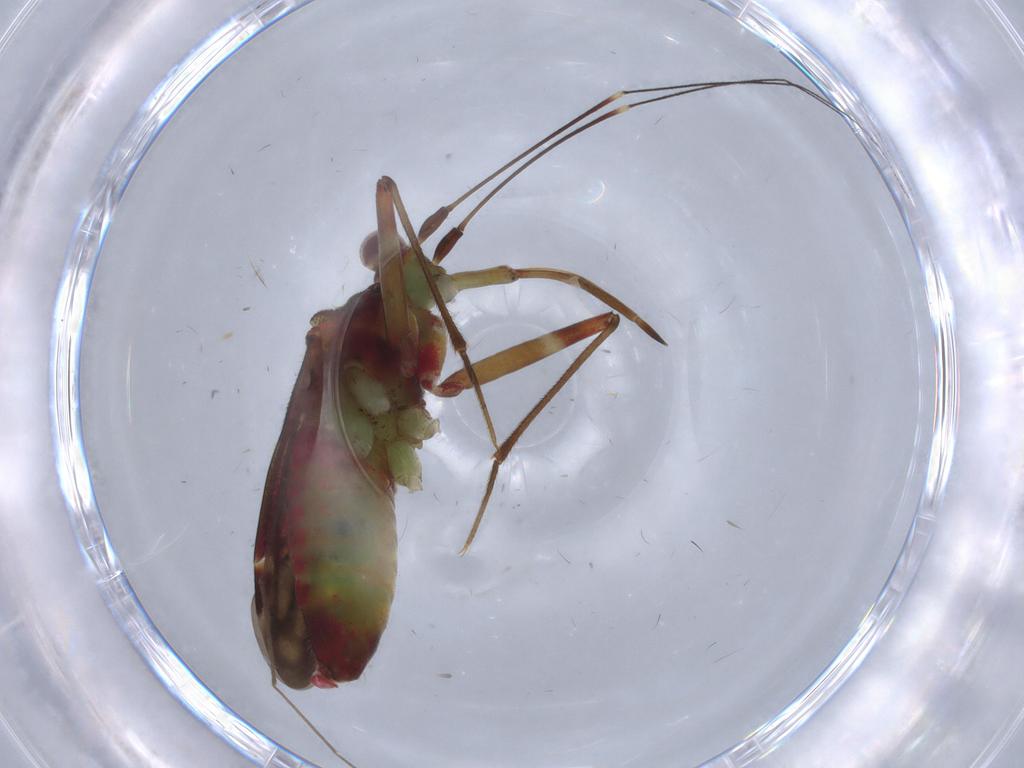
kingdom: Animalia
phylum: Arthropoda
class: Insecta
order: Hemiptera
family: Miridae
